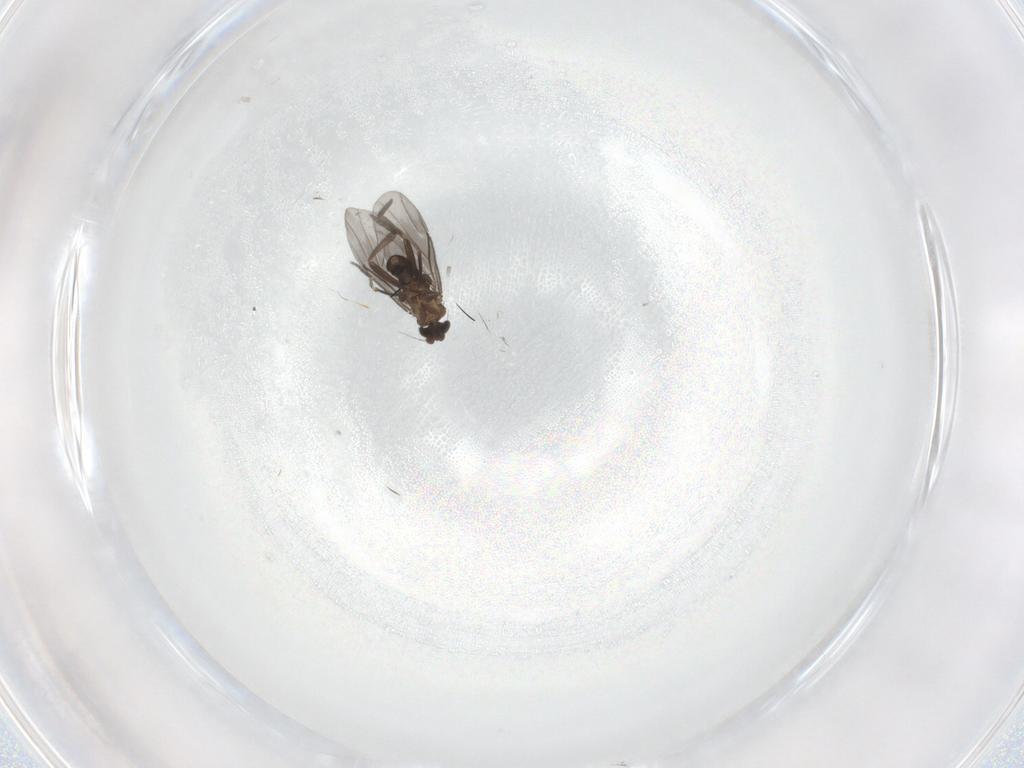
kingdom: Animalia
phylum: Arthropoda
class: Insecta
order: Diptera
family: Phoridae
